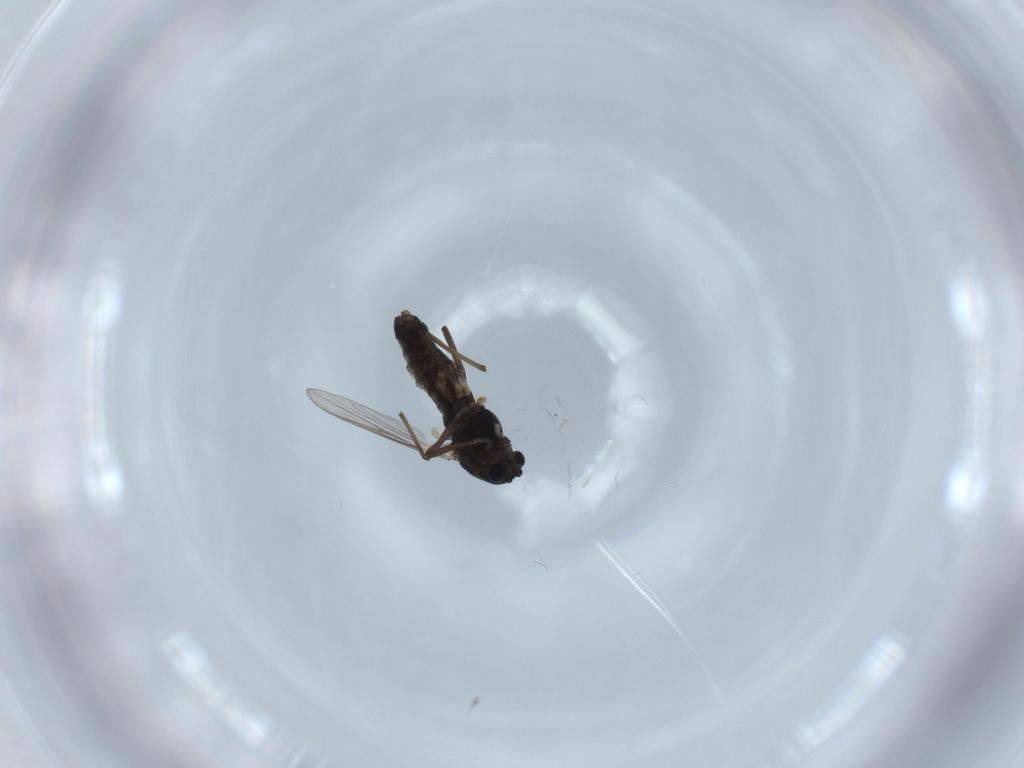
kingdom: Animalia
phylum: Arthropoda
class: Insecta
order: Diptera
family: Chironomidae
